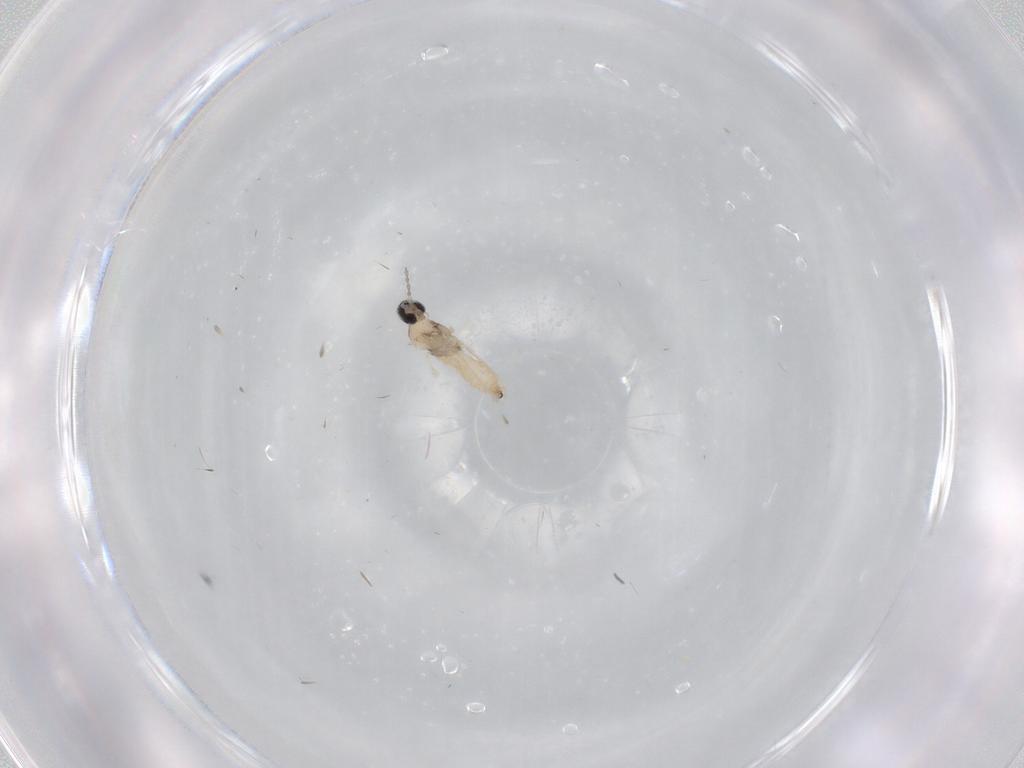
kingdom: Animalia
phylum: Arthropoda
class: Insecta
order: Diptera
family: Cecidomyiidae
